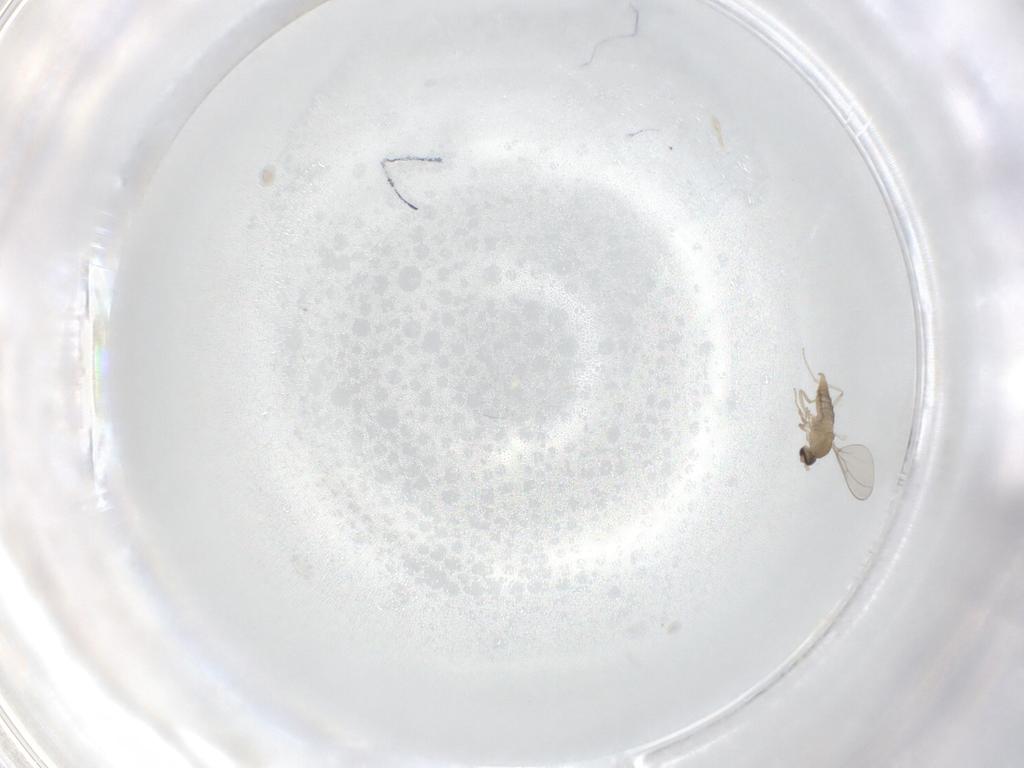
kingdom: Animalia
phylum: Arthropoda
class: Insecta
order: Diptera
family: Cecidomyiidae
